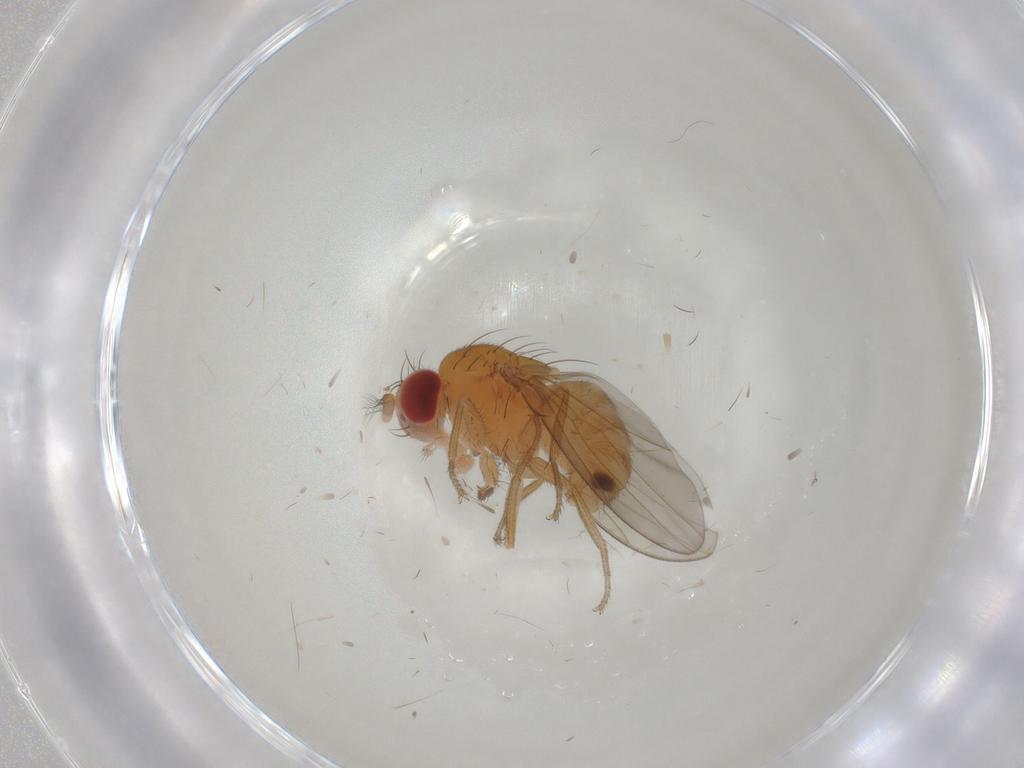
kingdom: Animalia
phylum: Arthropoda
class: Insecta
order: Diptera
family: Drosophilidae
